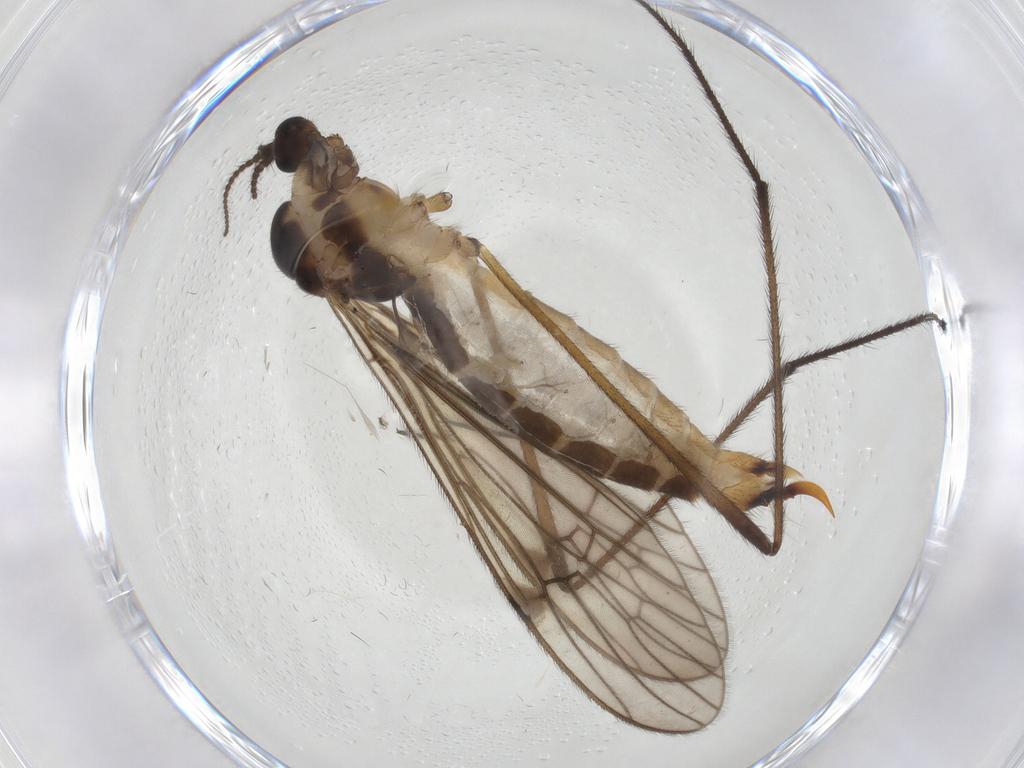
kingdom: Animalia
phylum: Arthropoda
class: Insecta
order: Diptera
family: Limoniidae
